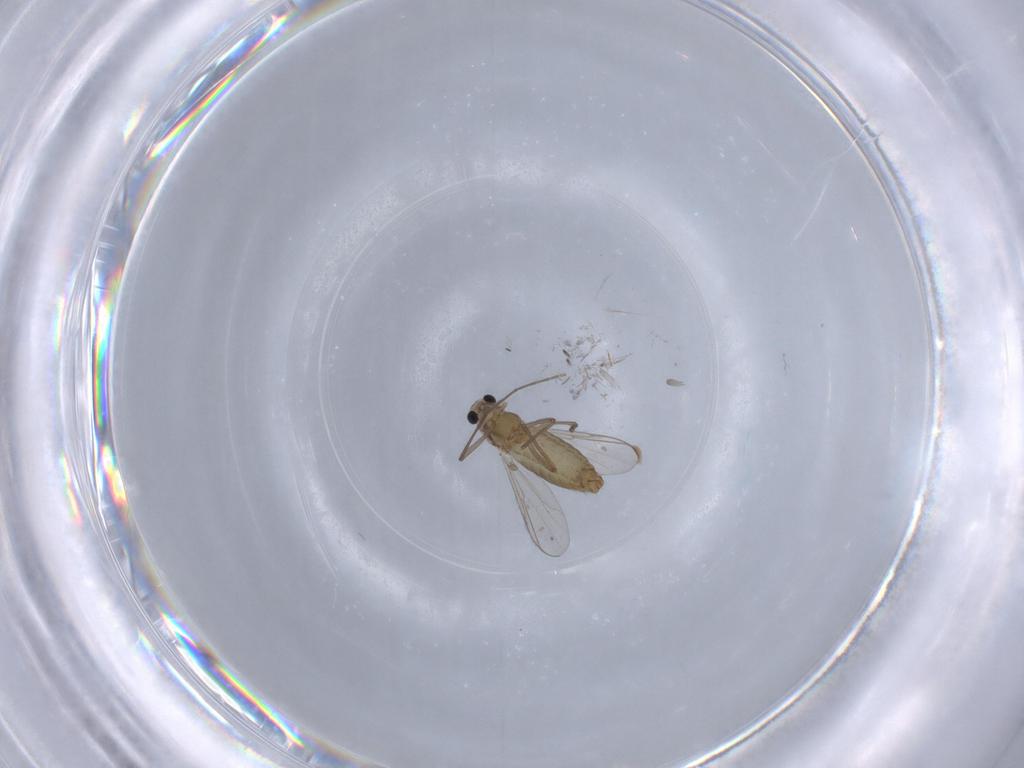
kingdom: Animalia
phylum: Arthropoda
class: Insecta
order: Diptera
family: Chironomidae
